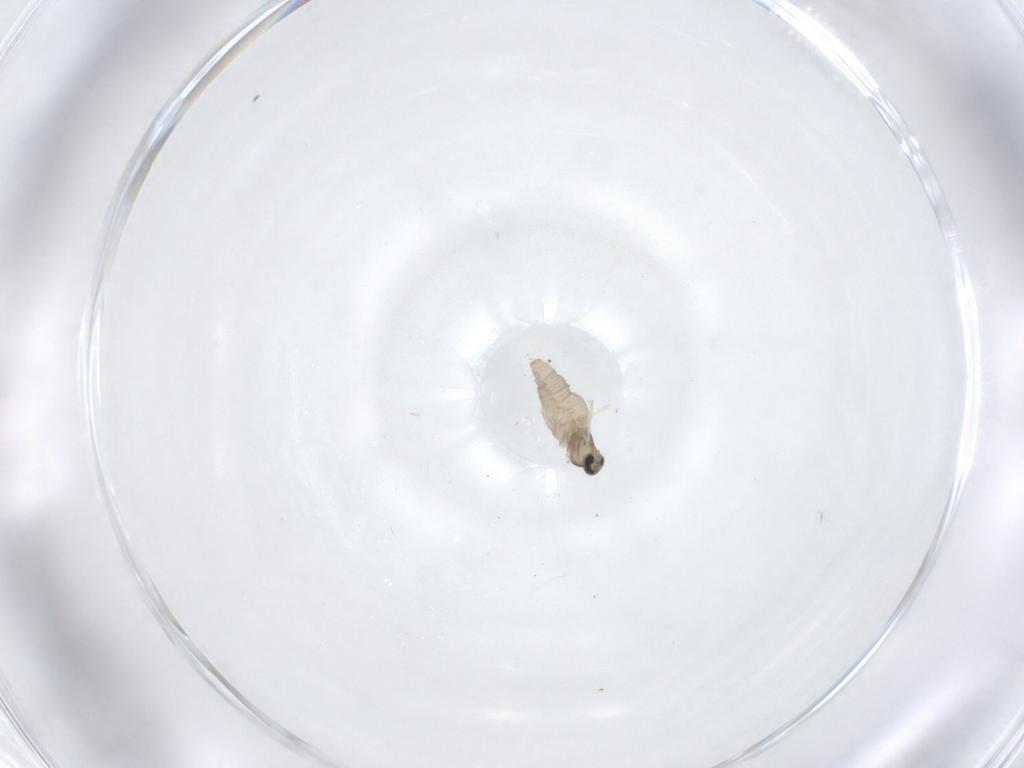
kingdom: Animalia
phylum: Arthropoda
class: Insecta
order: Diptera
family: Cecidomyiidae
